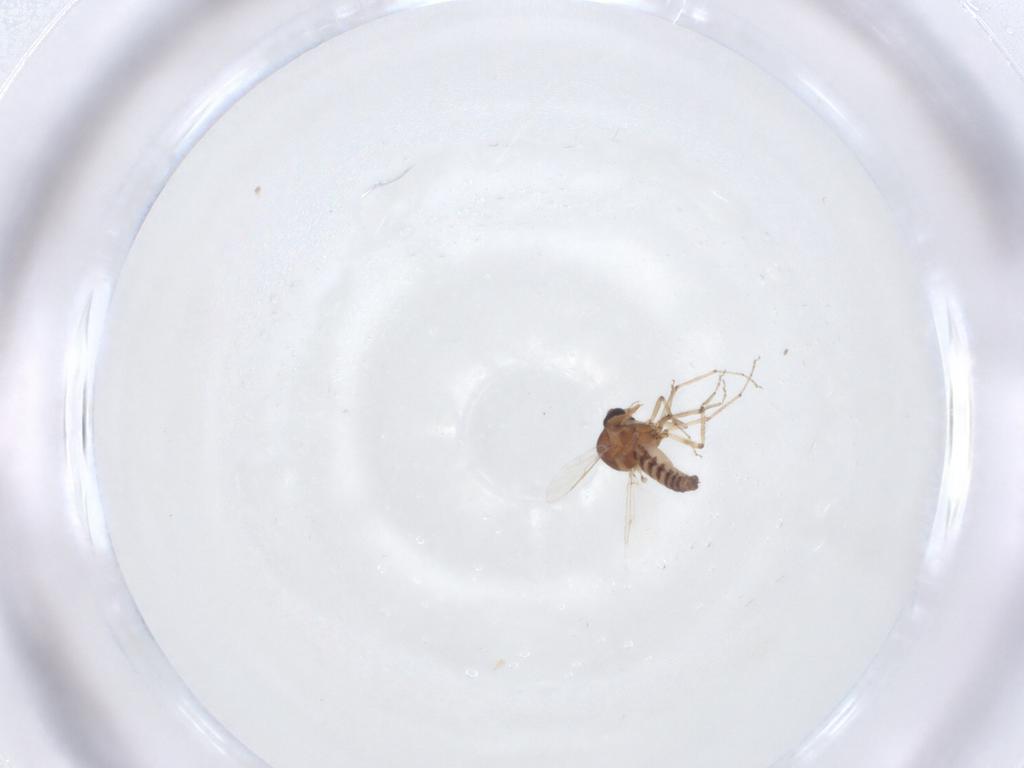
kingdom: Animalia
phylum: Arthropoda
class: Insecta
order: Diptera
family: Ceratopogonidae
